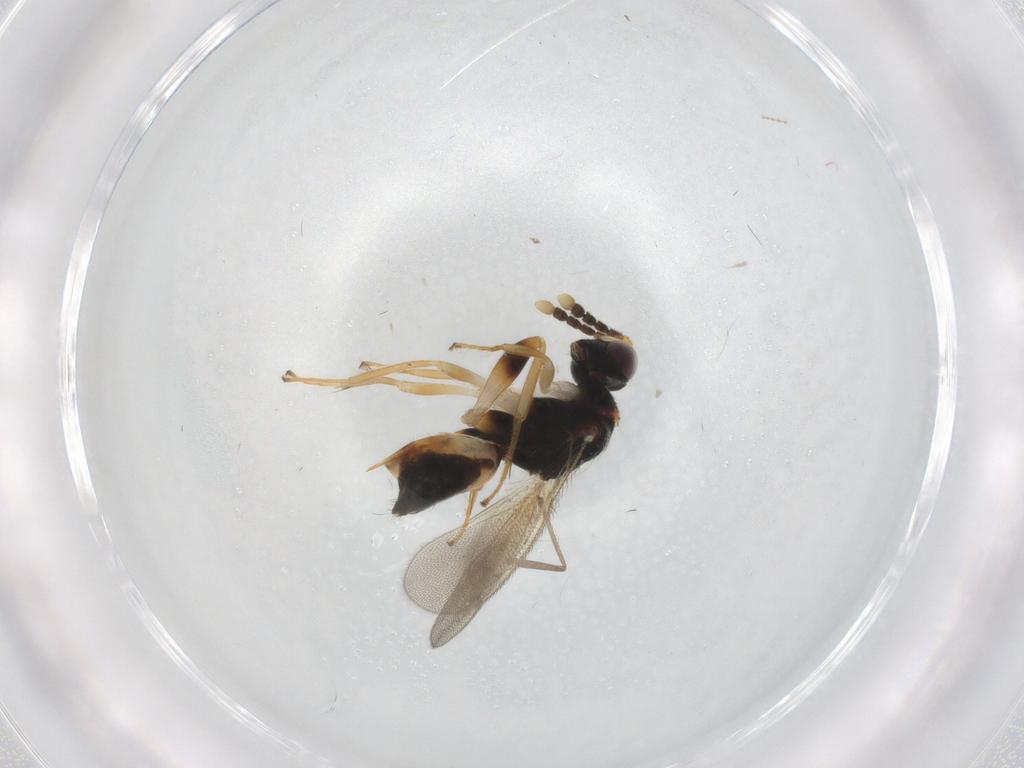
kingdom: Animalia
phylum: Arthropoda
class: Insecta
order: Hymenoptera
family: Eulophidae
